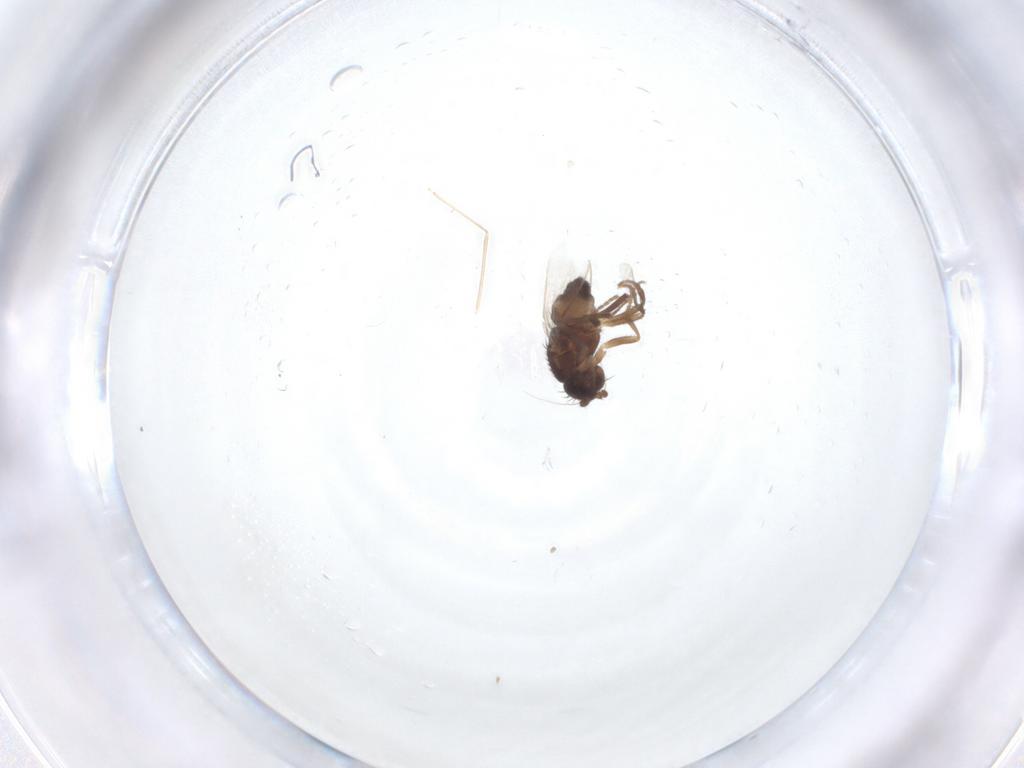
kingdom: Animalia
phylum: Arthropoda
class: Insecta
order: Diptera
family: Sphaeroceridae
